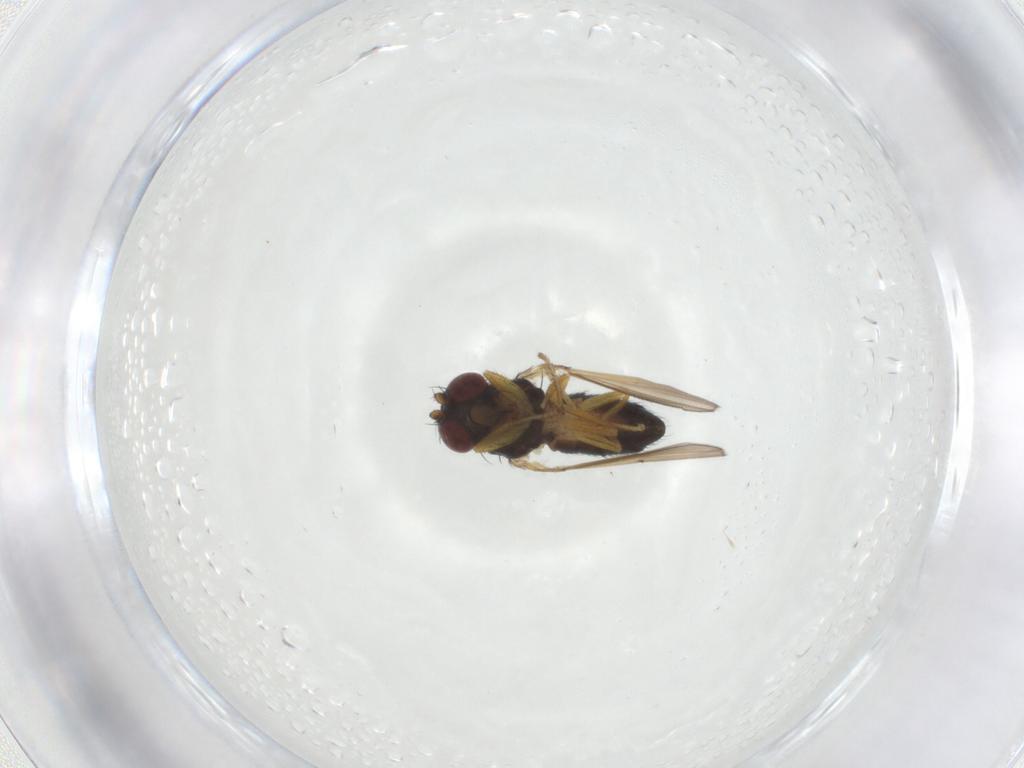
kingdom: Animalia
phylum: Arthropoda
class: Insecta
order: Diptera
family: Ephydridae
